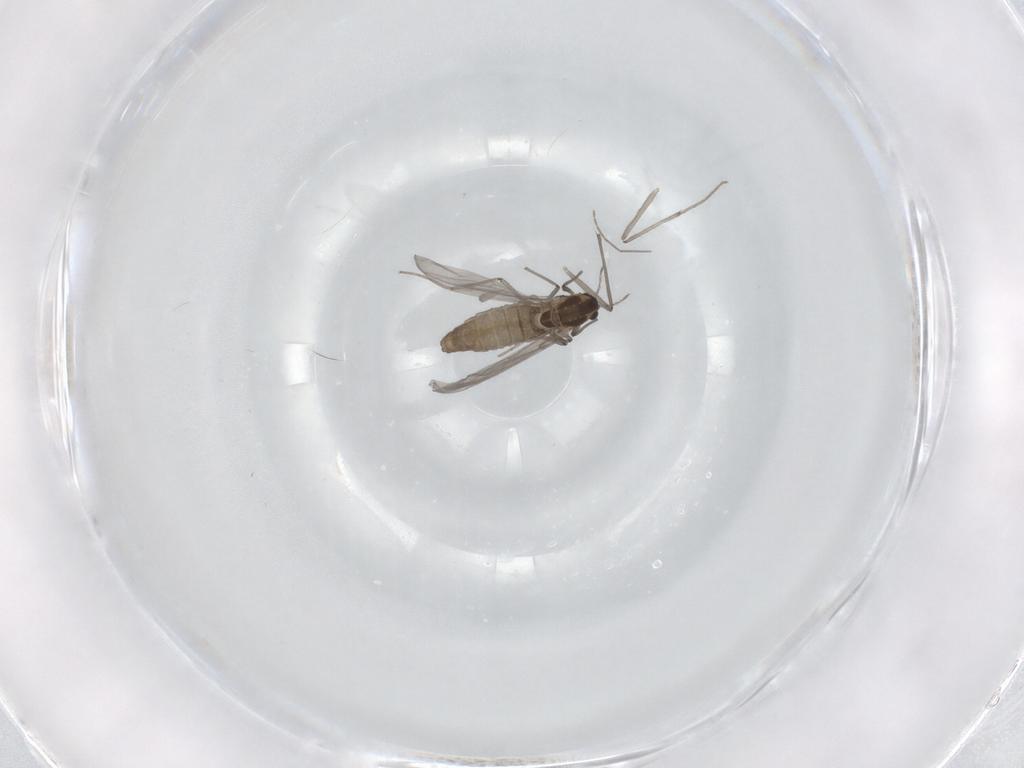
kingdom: Animalia
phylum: Arthropoda
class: Insecta
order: Diptera
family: Chironomidae
